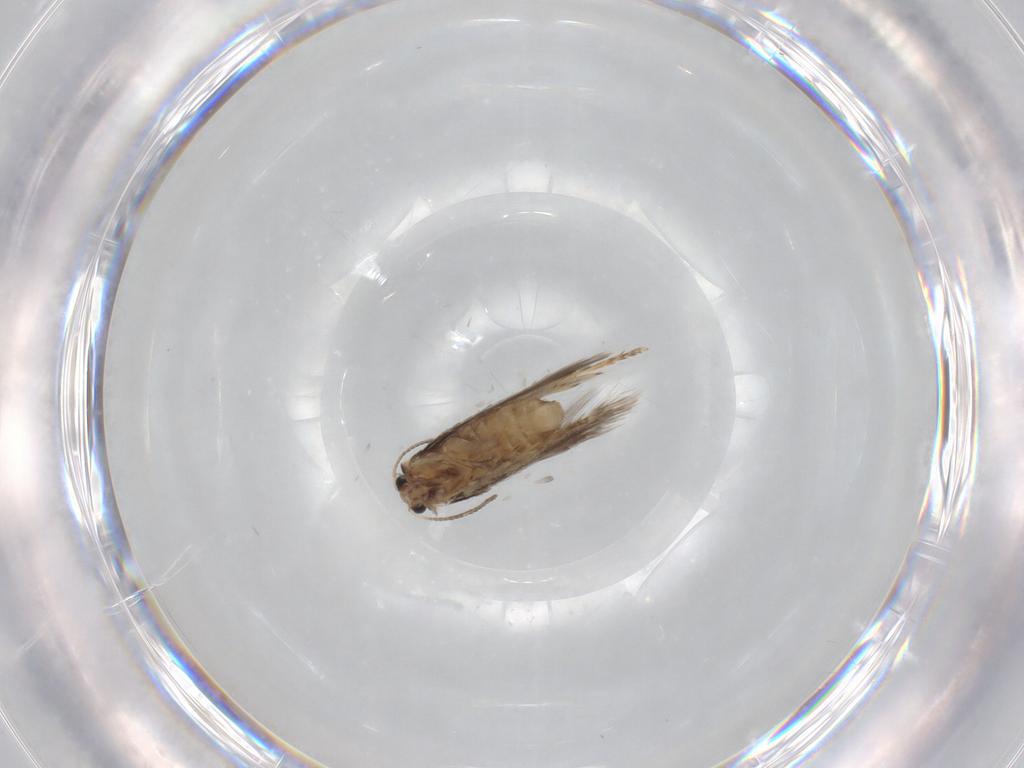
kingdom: Animalia
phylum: Arthropoda
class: Insecta
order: Lepidoptera
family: Nepticulidae
